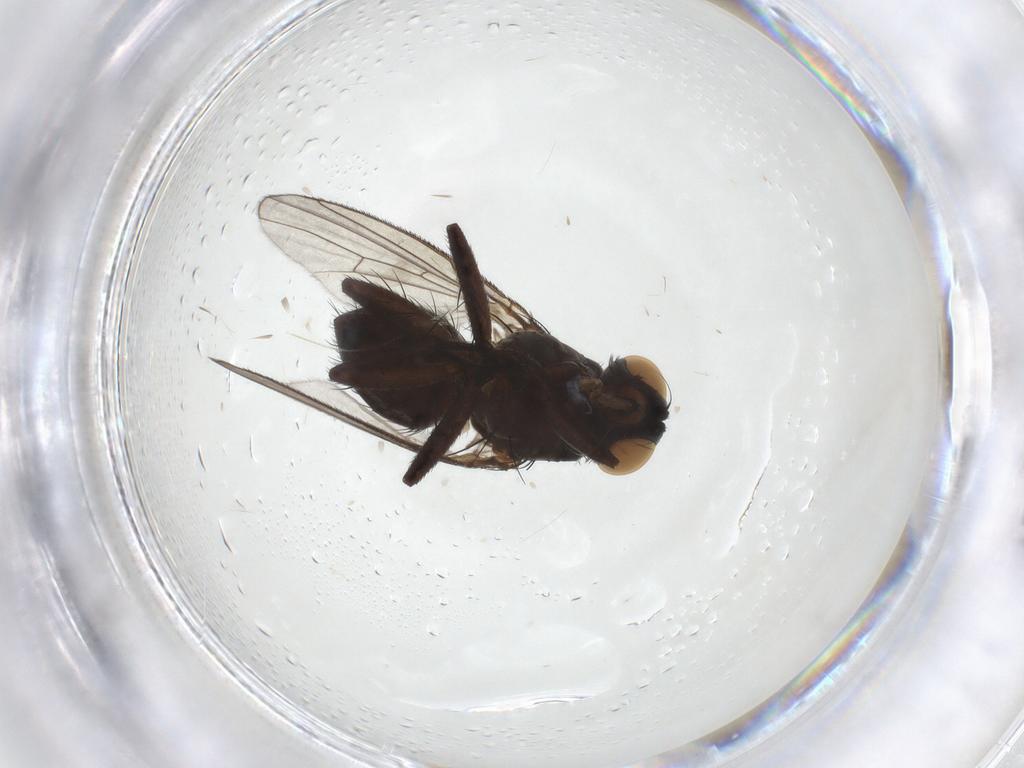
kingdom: Animalia
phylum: Arthropoda
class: Insecta
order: Diptera
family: Muscidae
